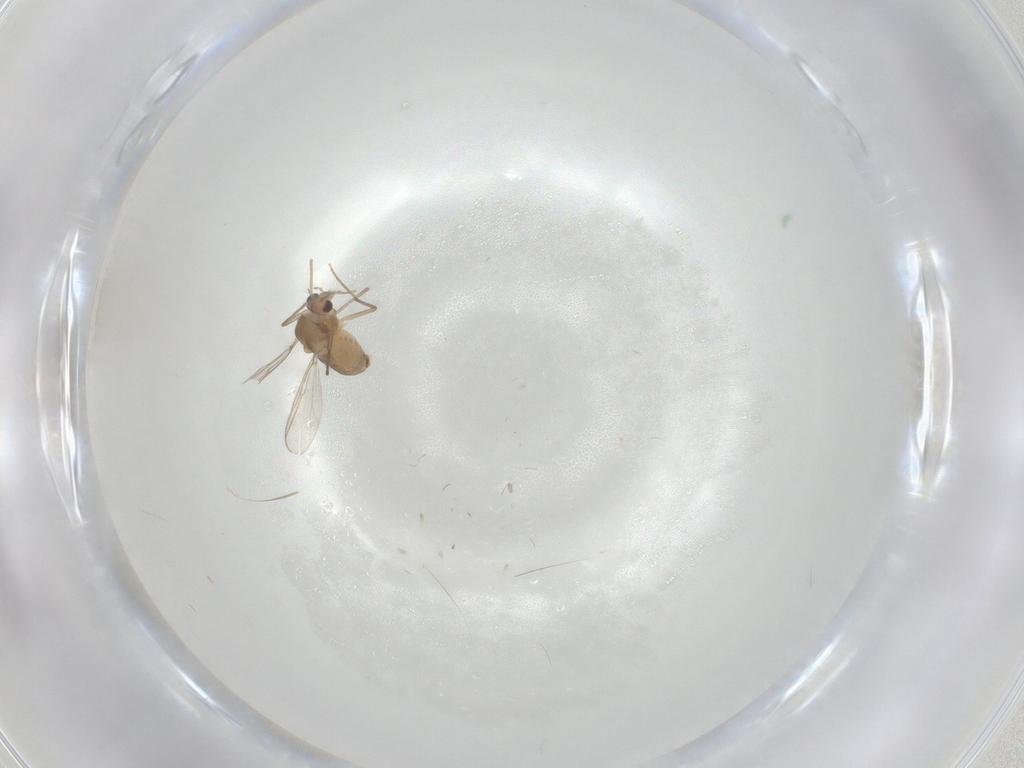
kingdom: Animalia
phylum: Arthropoda
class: Insecta
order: Diptera
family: Chironomidae
